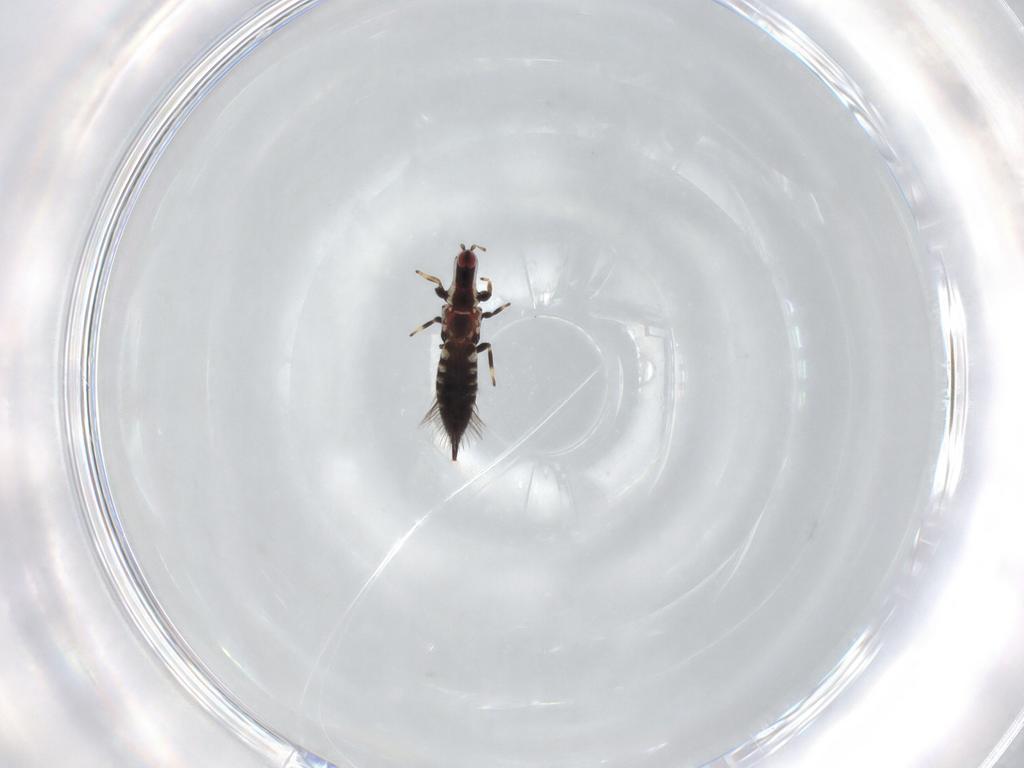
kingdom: Animalia
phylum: Arthropoda
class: Insecta
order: Thysanoptera
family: Phlaeothripidae
